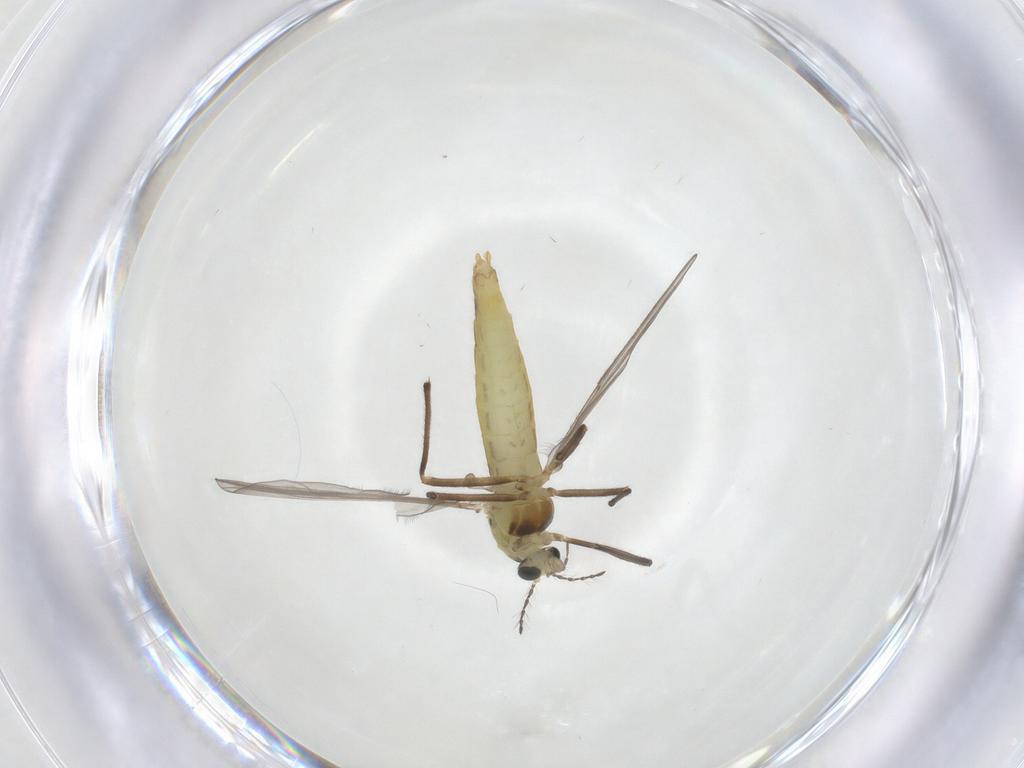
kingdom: Animalia
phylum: Arthropoda
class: Insecta
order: Diptera
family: Chironomidae
